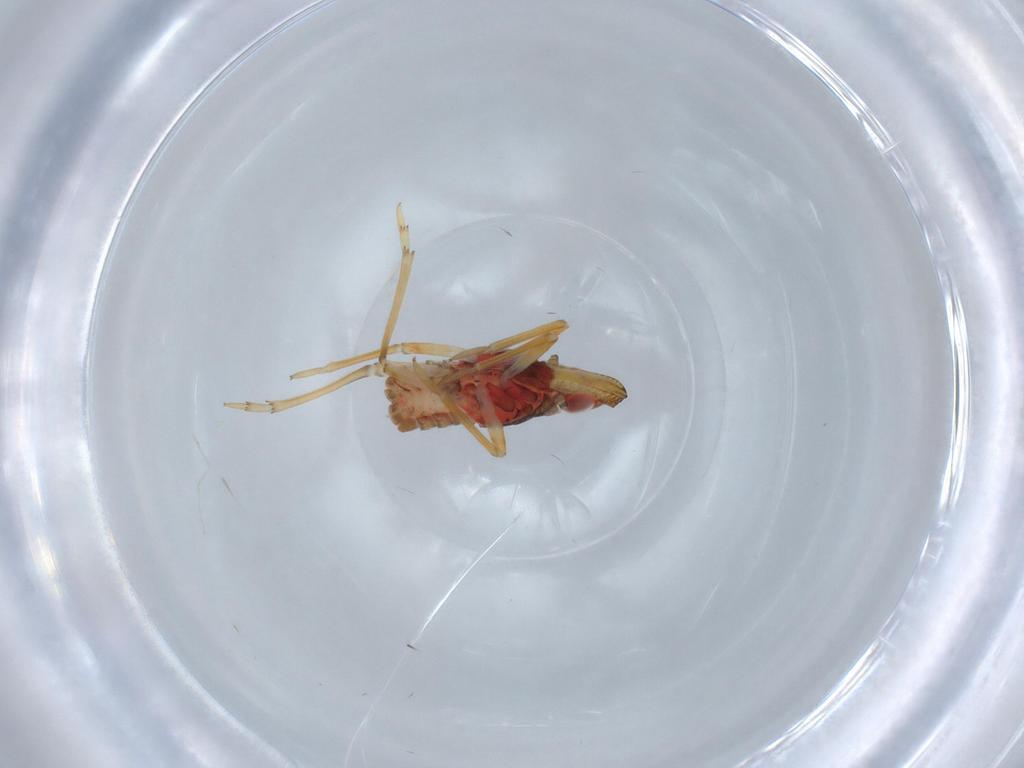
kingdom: Animalia
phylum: Arthropoda
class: Insecta
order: Hemiptera
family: Fulgoroidea_incertae_sedis
